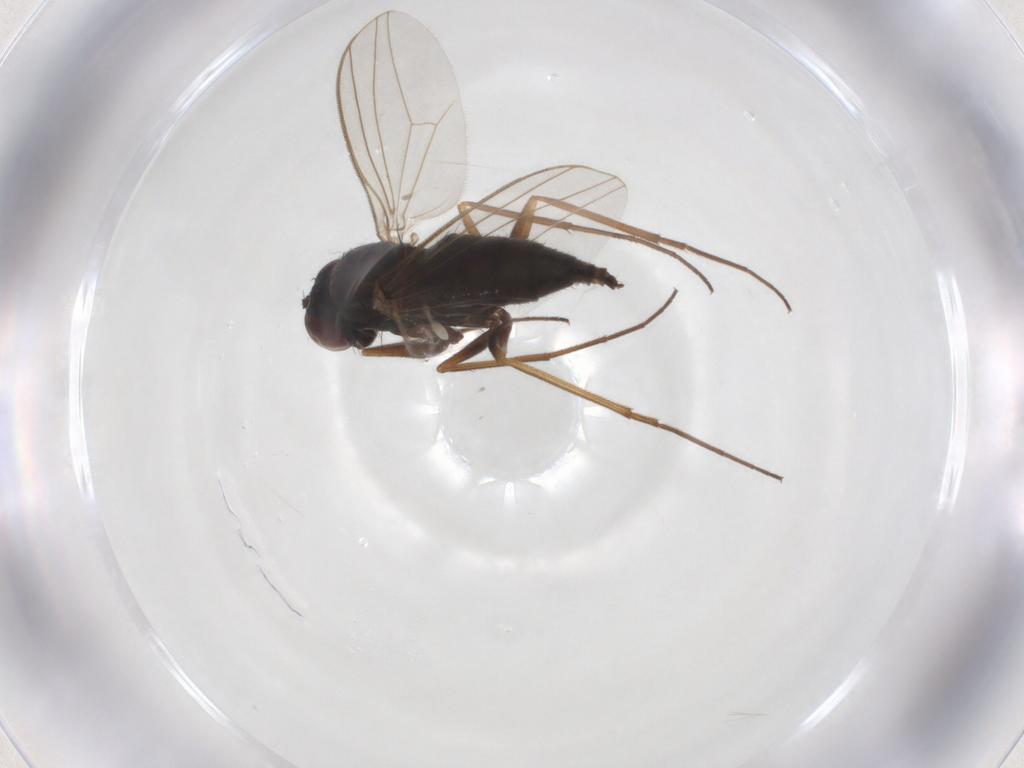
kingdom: Animalia
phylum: Arthropoda
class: Insecta
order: Diptera
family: Dolichopodidae
